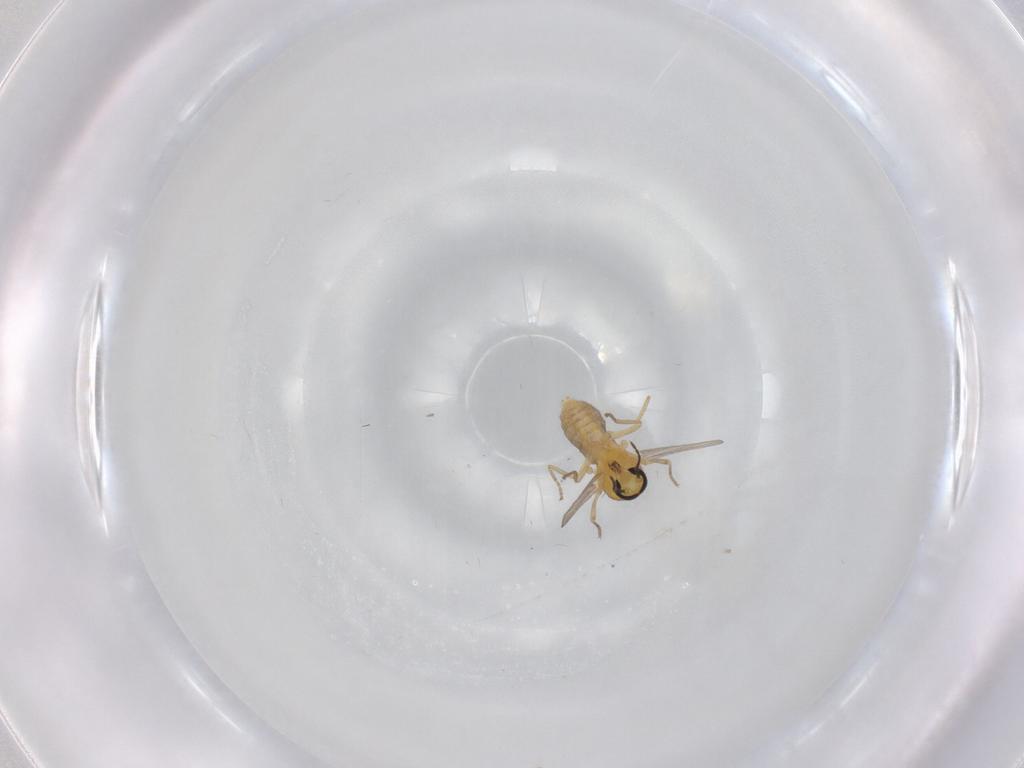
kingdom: Animalia
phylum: Arthropoda
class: Insecta
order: Diptera
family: Ceratopogonidae
